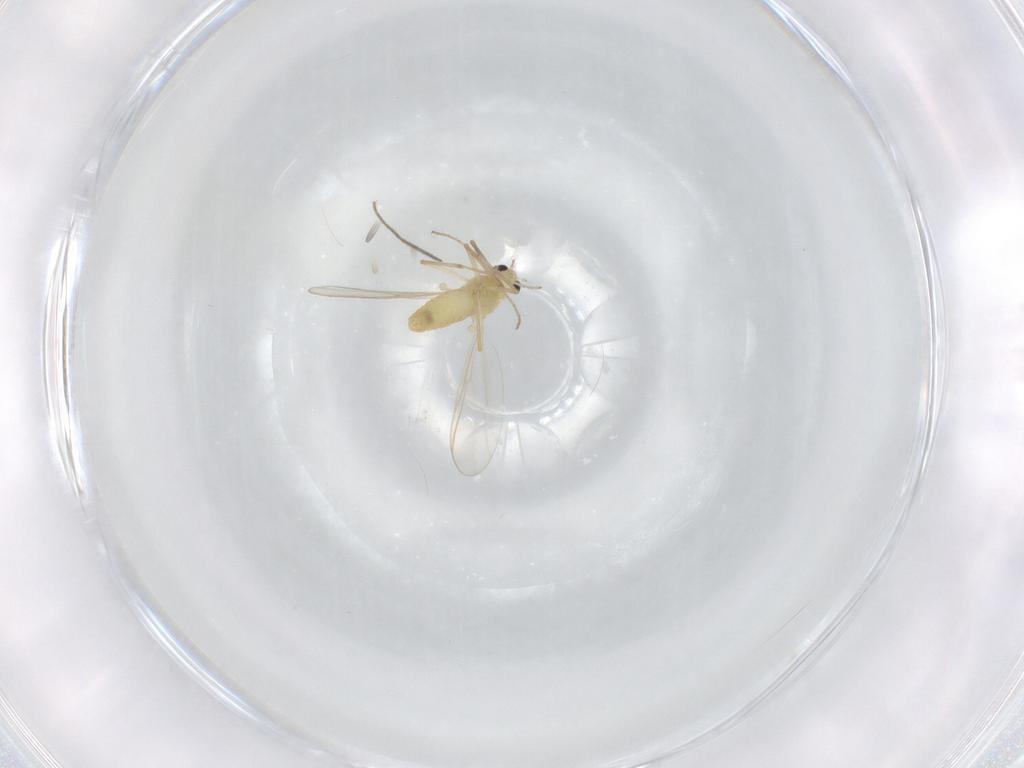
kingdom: Animalia
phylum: Arthropoda
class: Insecta
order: Diptera
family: Chironomidae
